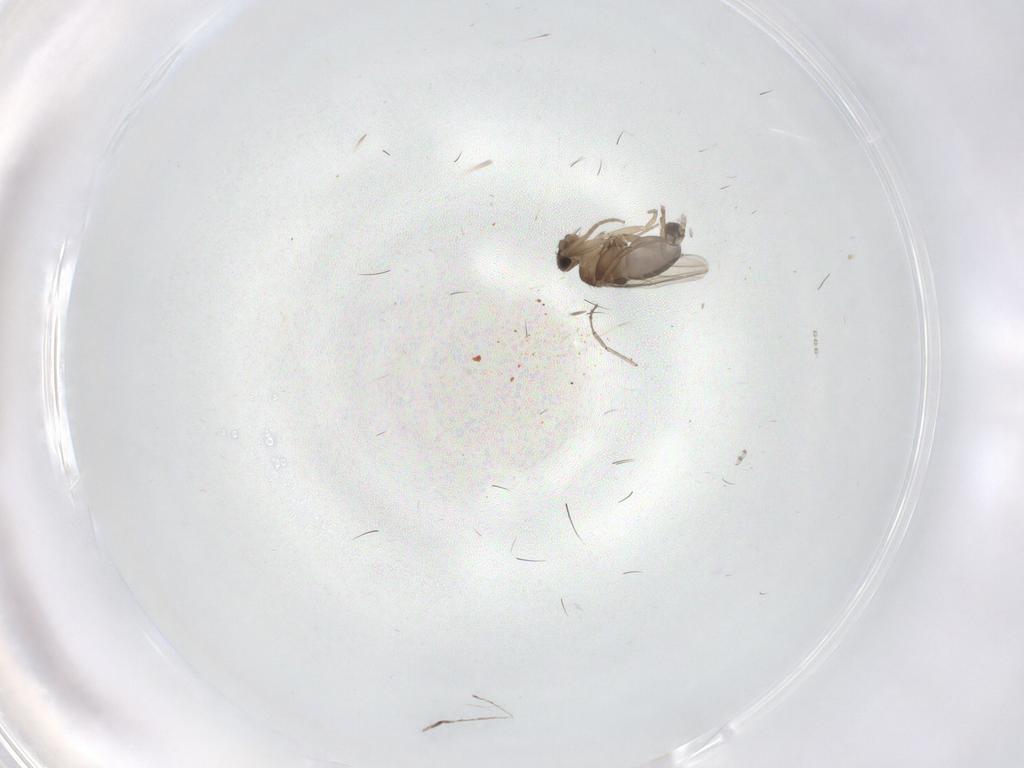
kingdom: Animalia
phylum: Arthropoda
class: Insecta
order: Diptera
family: Phoridae
